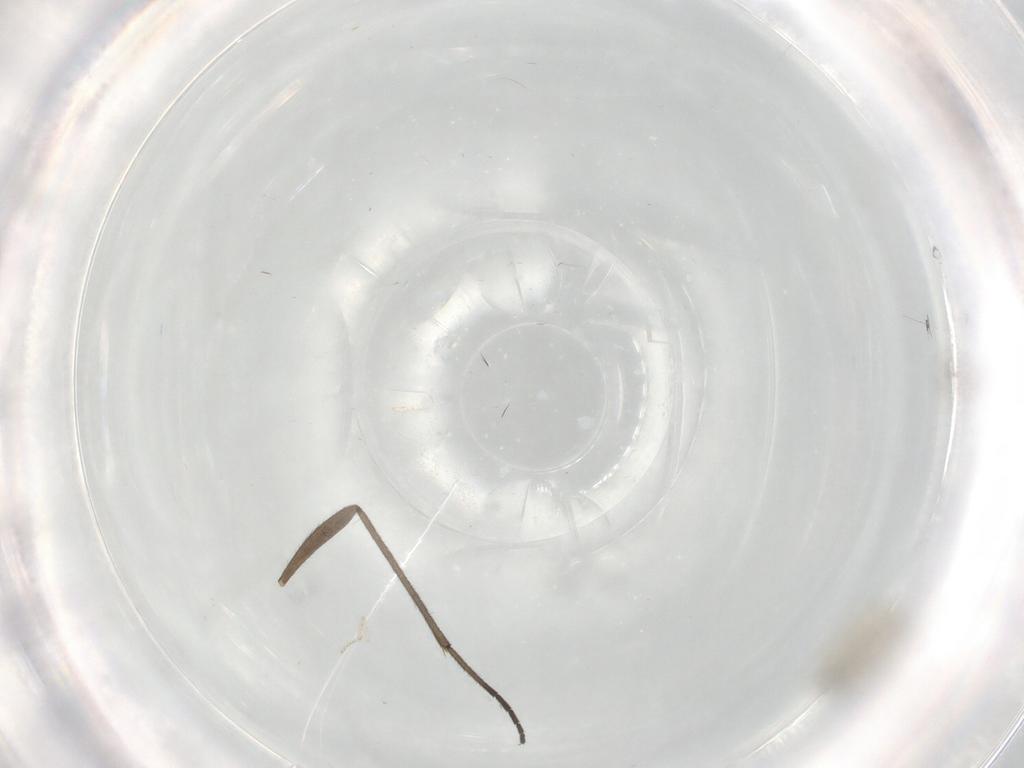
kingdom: Animalia
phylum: Arthropoda
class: Insecta
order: Diptera
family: Cecidomyiidae
